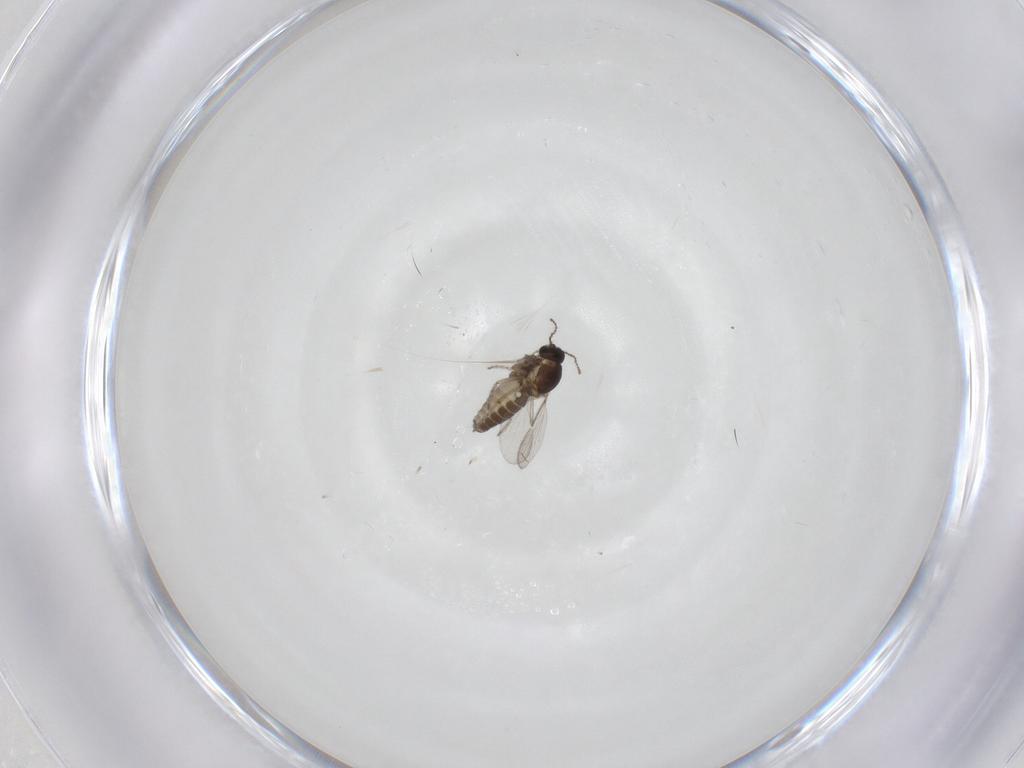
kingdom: Animalia
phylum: Arthropoda
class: Insecta
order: Diptera
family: Ceratopogonidae
